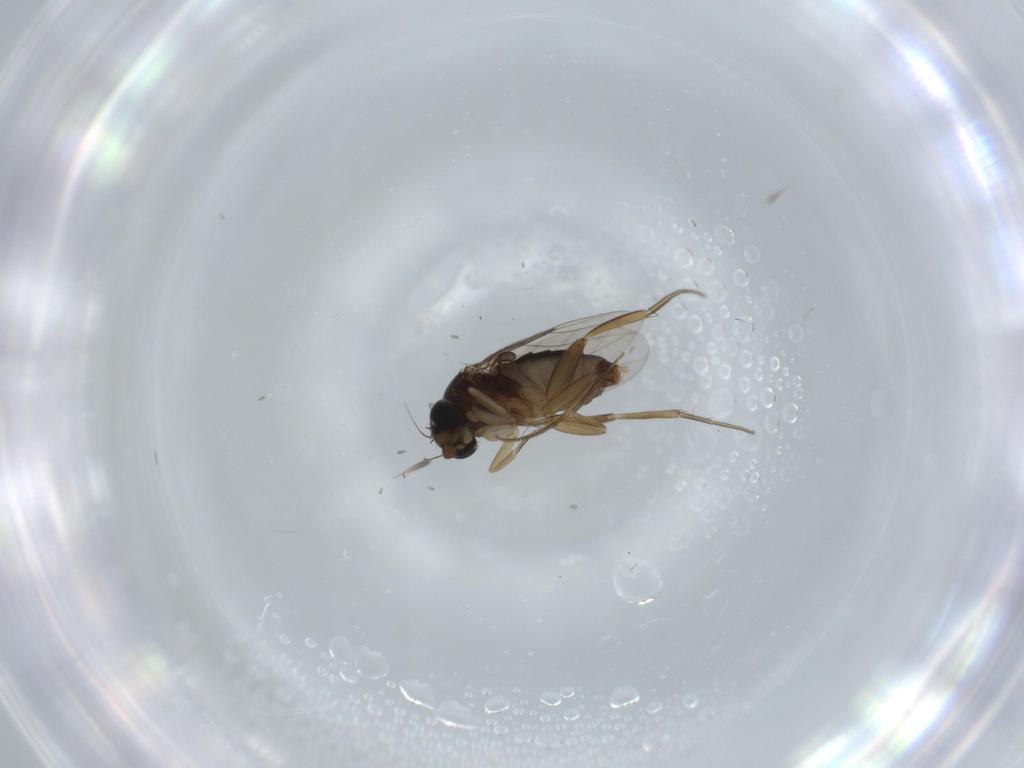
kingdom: Animalia
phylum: Arthropoda
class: Insecta
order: Diptera
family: Phoridae
